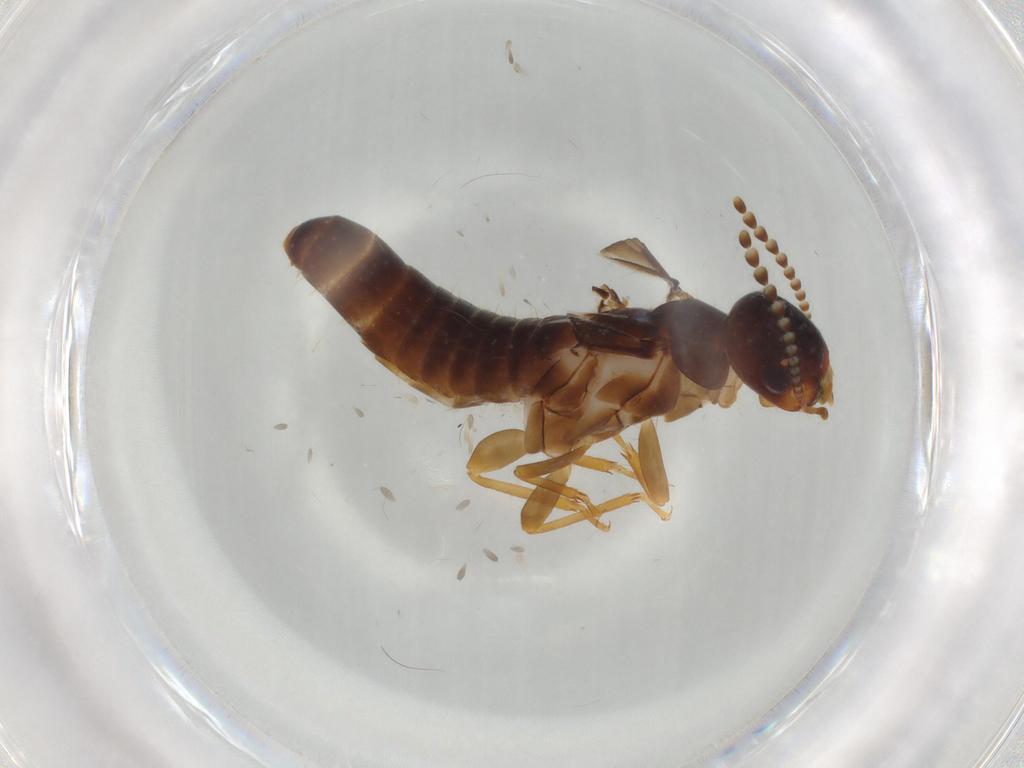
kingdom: Animalia
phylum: Arthropoda
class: Insecta
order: Blattodea
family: Kalotermitidae
